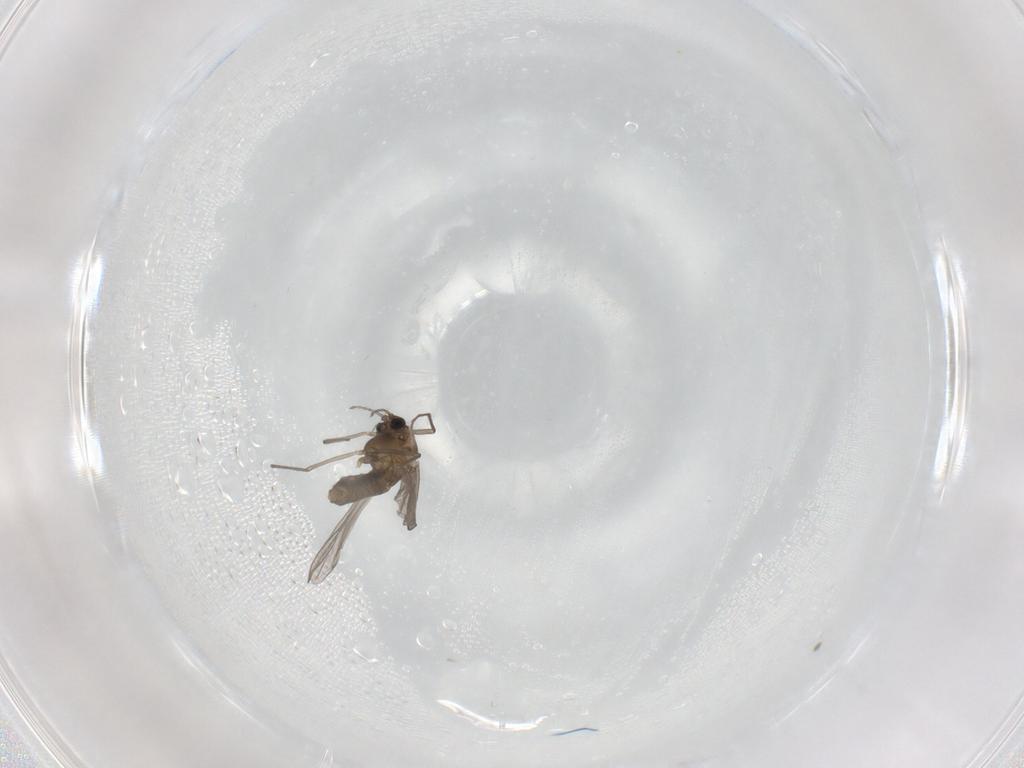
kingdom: Animalia
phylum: Arthropoda
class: Insecta
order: Diptera
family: Chironomidae
